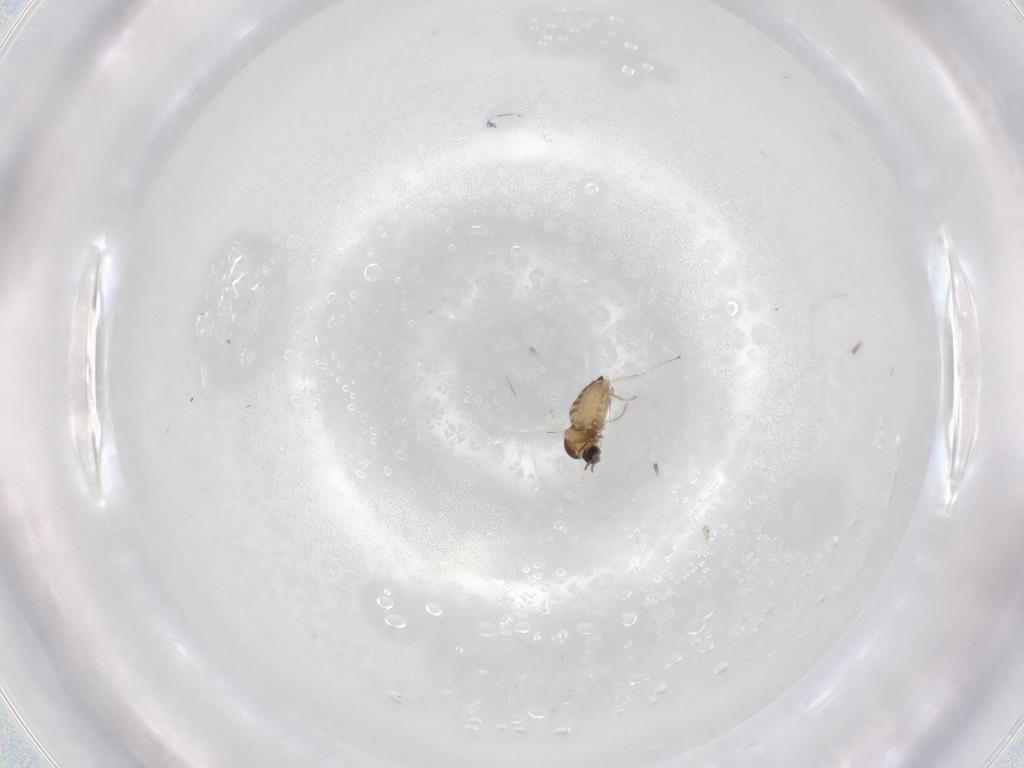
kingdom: Animalia
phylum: Arthropoda
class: Insecta
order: Diptera
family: Cecidomyiidae
